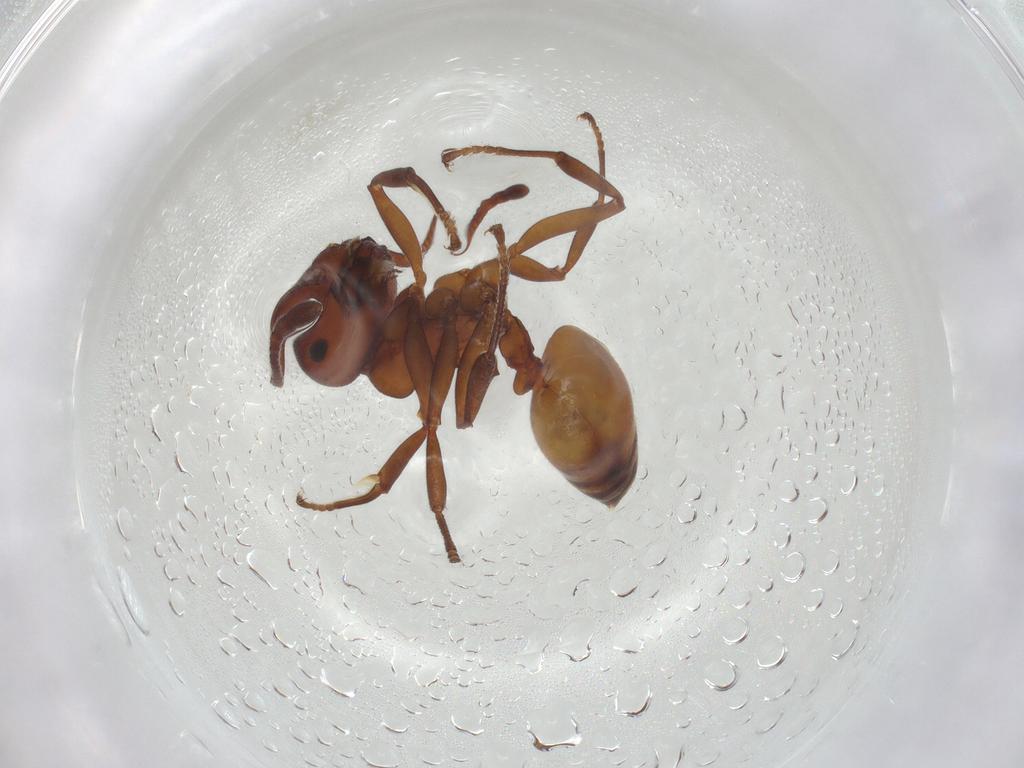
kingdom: Animalia
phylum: Arthropoda
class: Insecta
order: Hymenoptera
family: Formicidae
